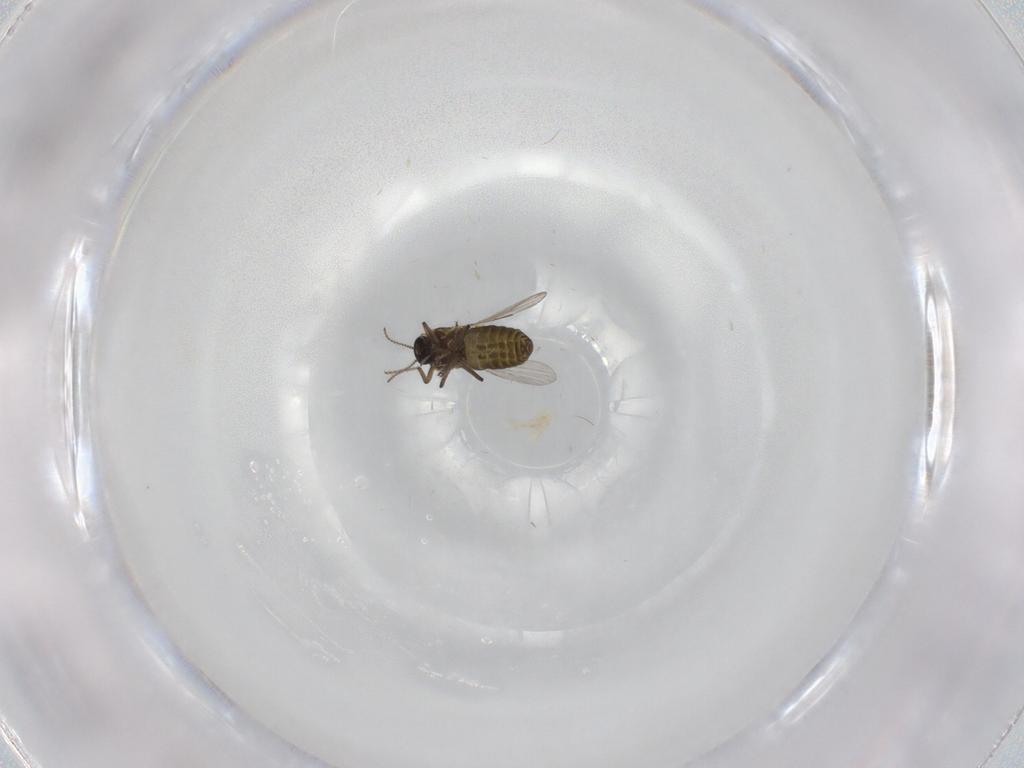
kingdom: Animalia
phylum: Arthropoda
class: Insecta
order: Diptera
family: Ceratopogonidae
